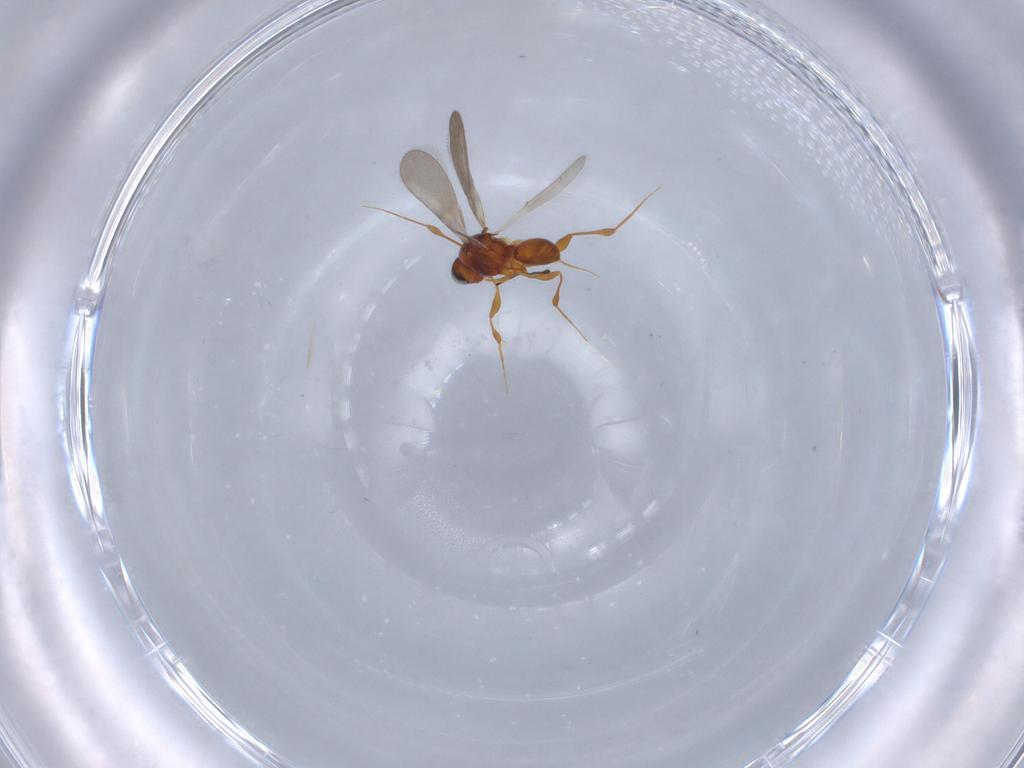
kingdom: Animalia
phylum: Arthropoda
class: Insecta
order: Hymenoptera
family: Platygastridae
